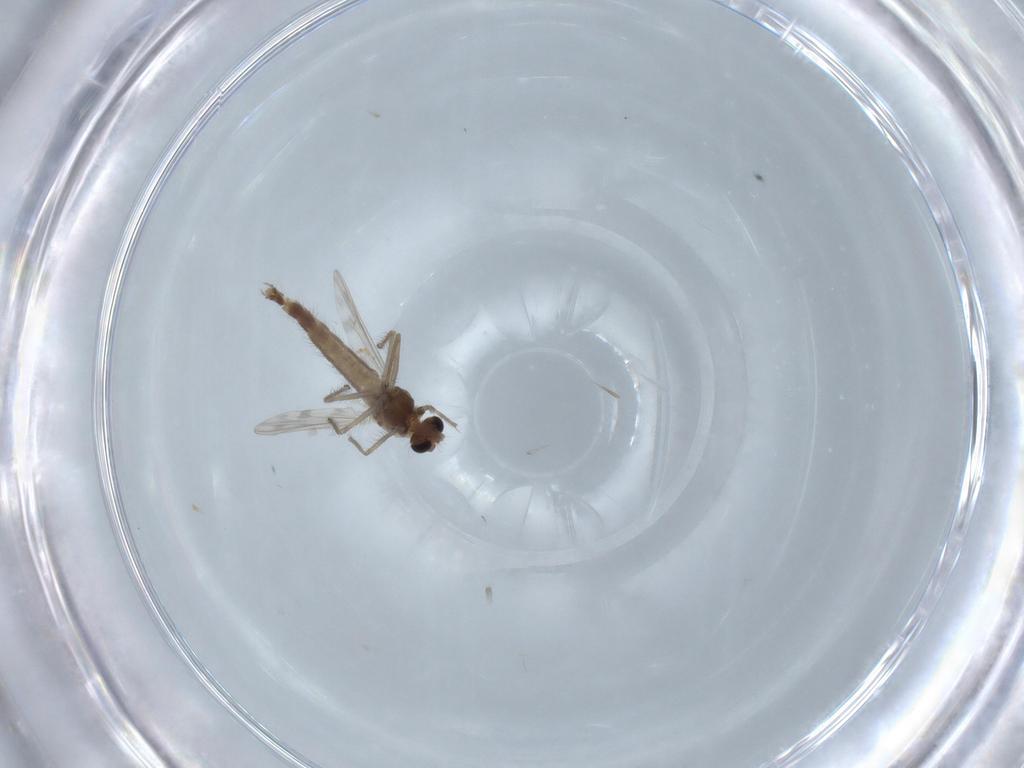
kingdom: Animalia
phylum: Arthropoda
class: Insecta
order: Diptera
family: Chironomidae
